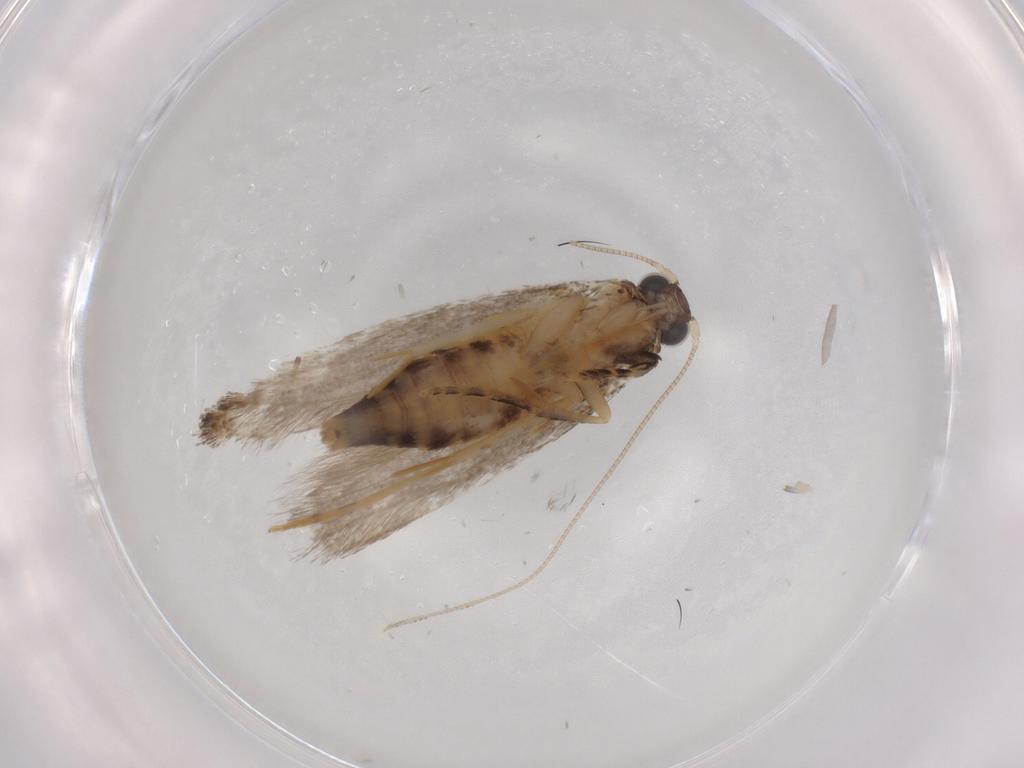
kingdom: Animalia
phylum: Arthropoda
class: Insecta
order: Lepidoptera
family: Tineidae
